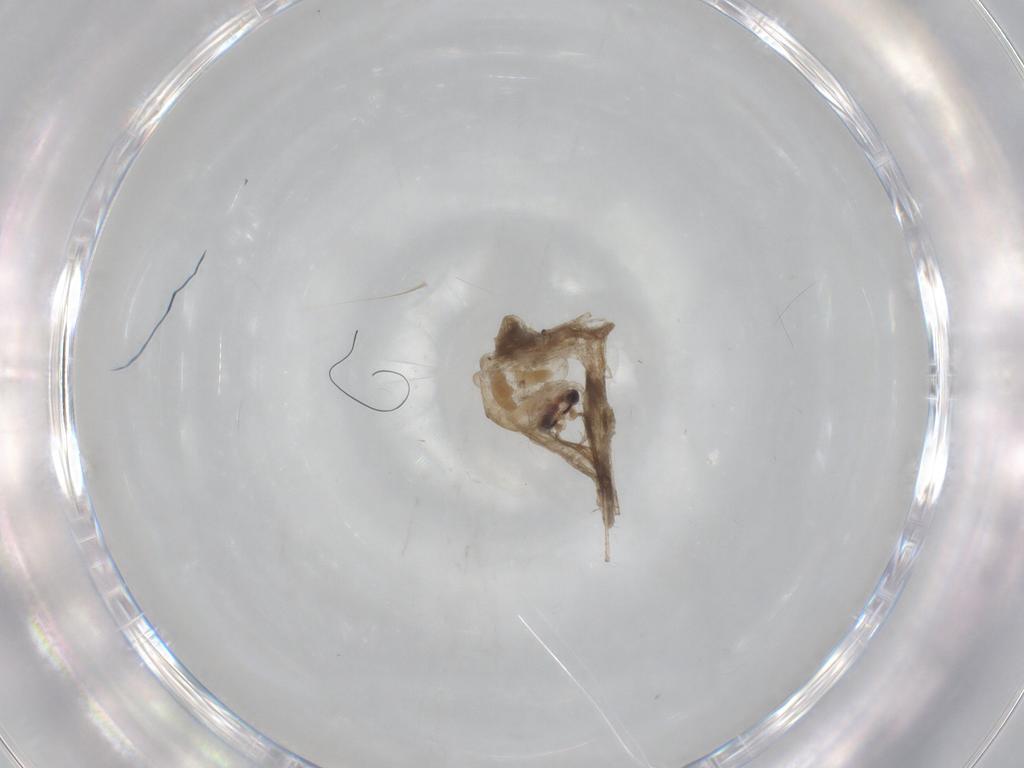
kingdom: Animalia
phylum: Arthropoda
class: Insecta
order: Diptera
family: Chironomidae
